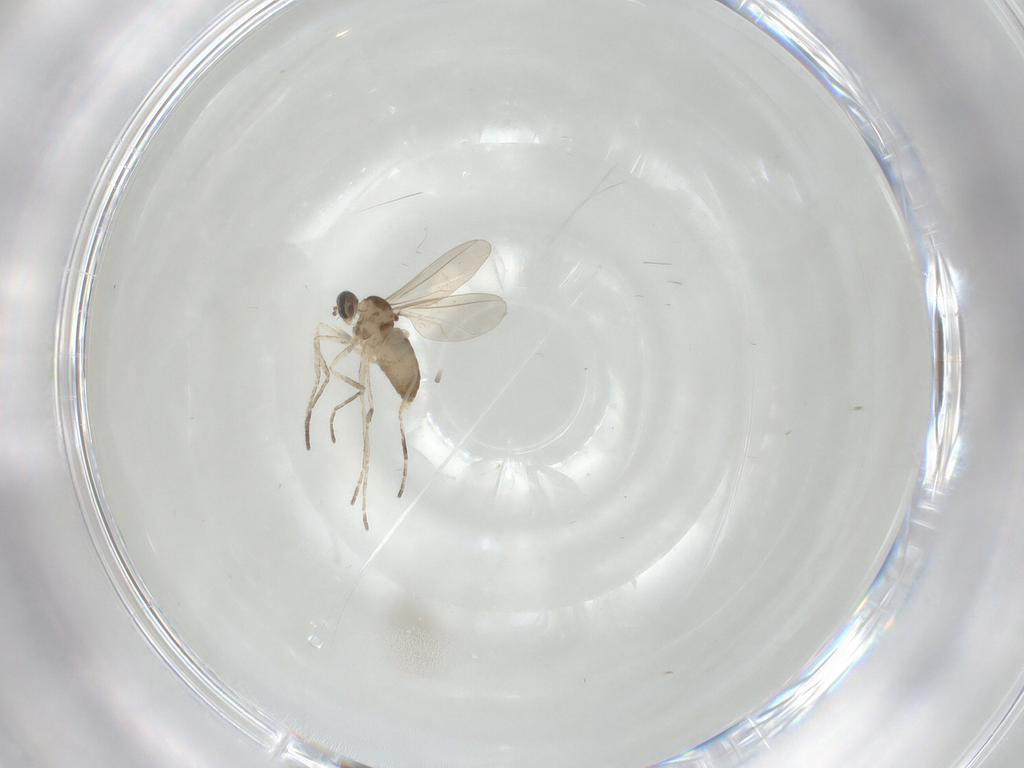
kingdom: Animalia
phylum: Arthropoda
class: Insecta
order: Diptera
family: Cecidomyiidae
